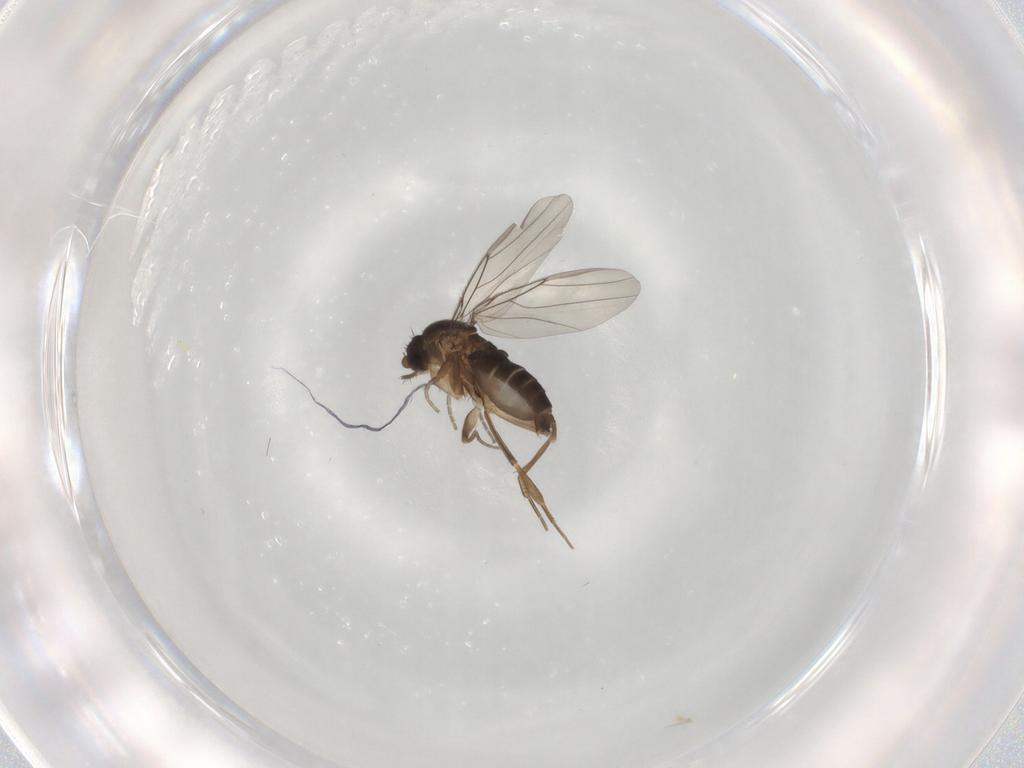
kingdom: Animalia
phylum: Arthropoda
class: Insecta
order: Diptera
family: Phoridae
